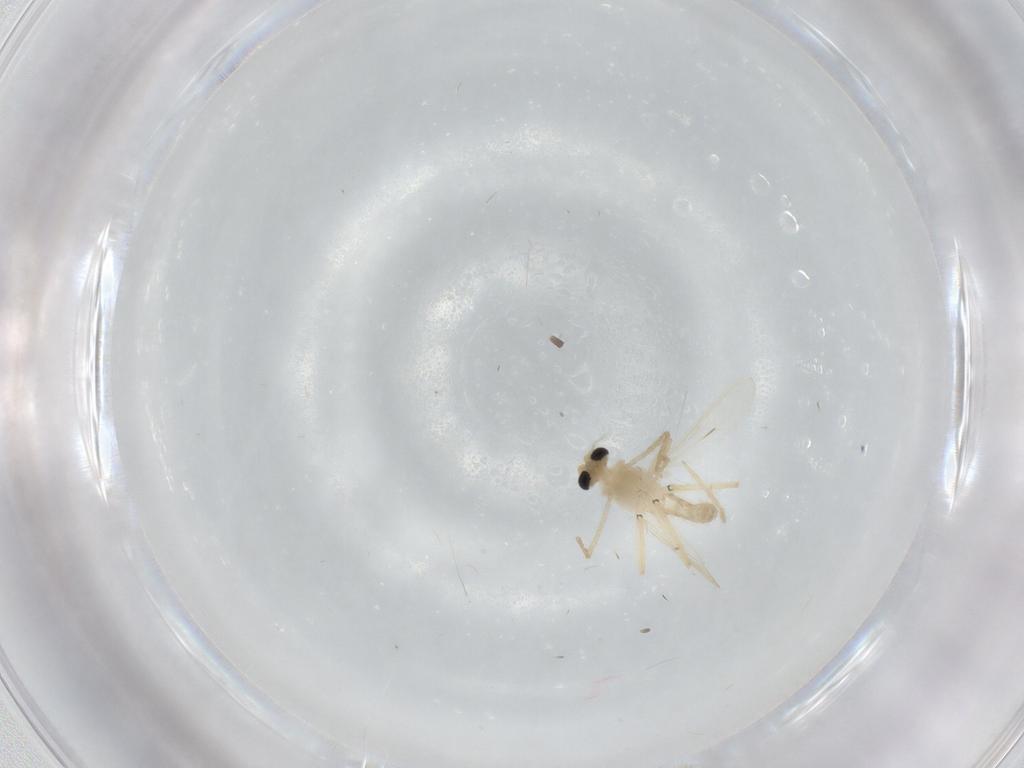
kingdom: Animalia
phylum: Arthropoda
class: Insecta
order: Diptera
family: Chironomidae
